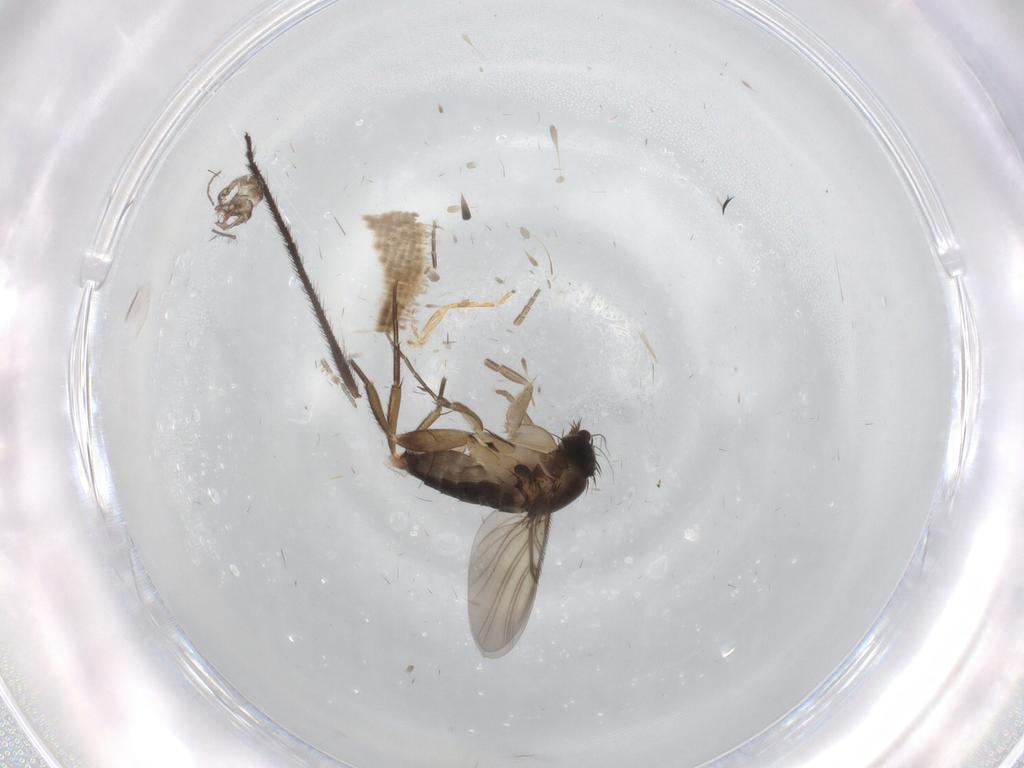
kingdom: Animalia
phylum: Arthropoda
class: Insecta
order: Diptera
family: Phoridae
